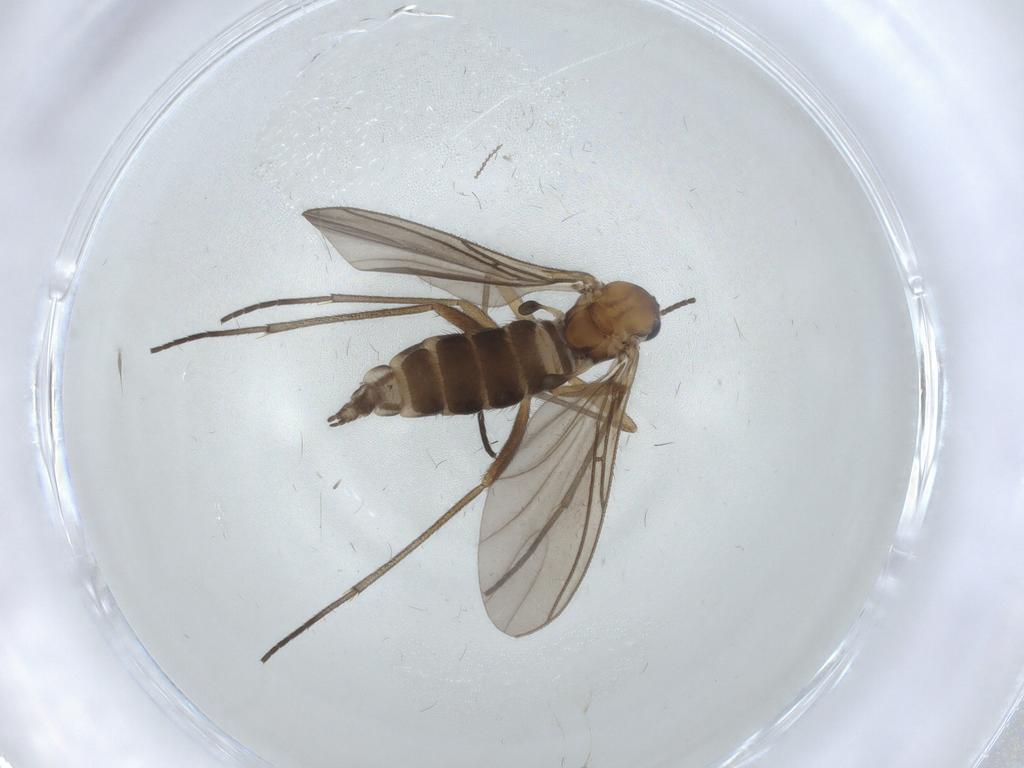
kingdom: Animalia
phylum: Arthropoda
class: Insecta
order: Diptera
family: Sciaridae
